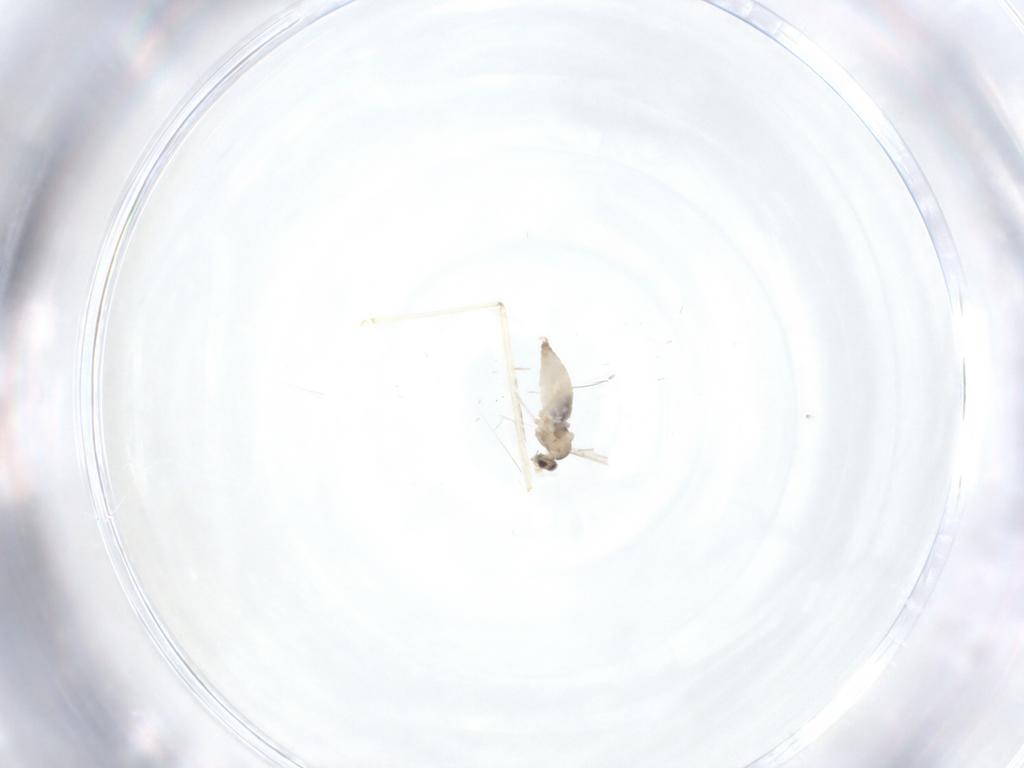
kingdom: Animalia
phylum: Arthropoda
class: Insecta
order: Diptera
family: Cecidomyiidae
